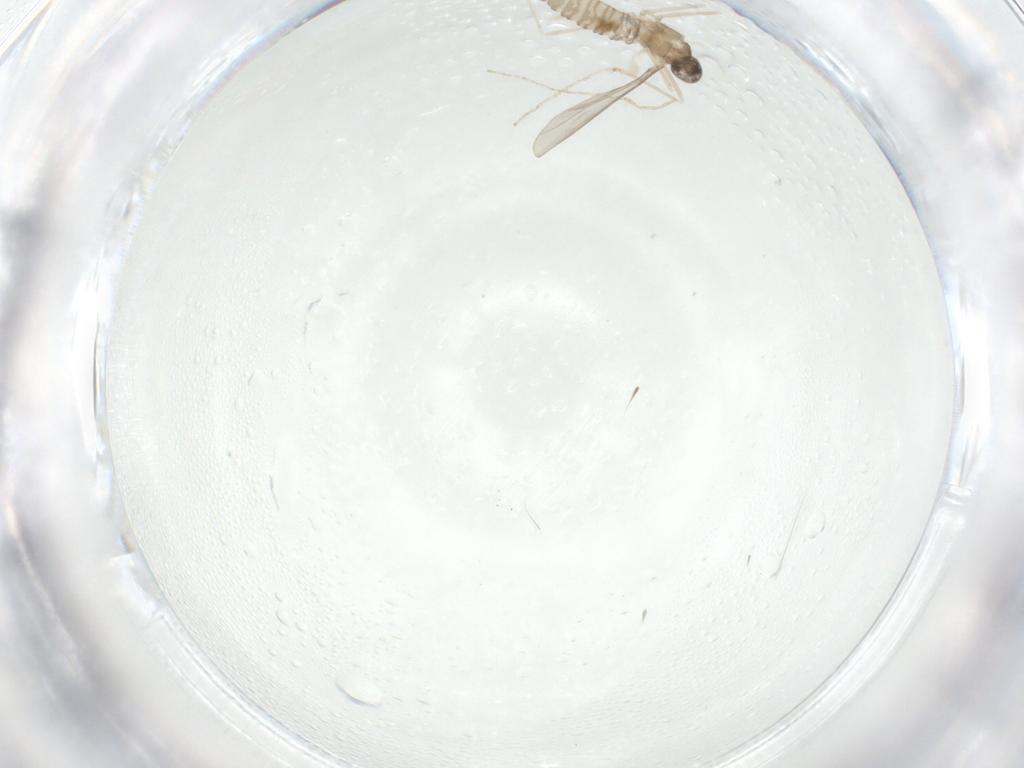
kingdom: Animalia
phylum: Arthropoda
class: Insecta
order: Diptera
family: Cecidomyiidae
